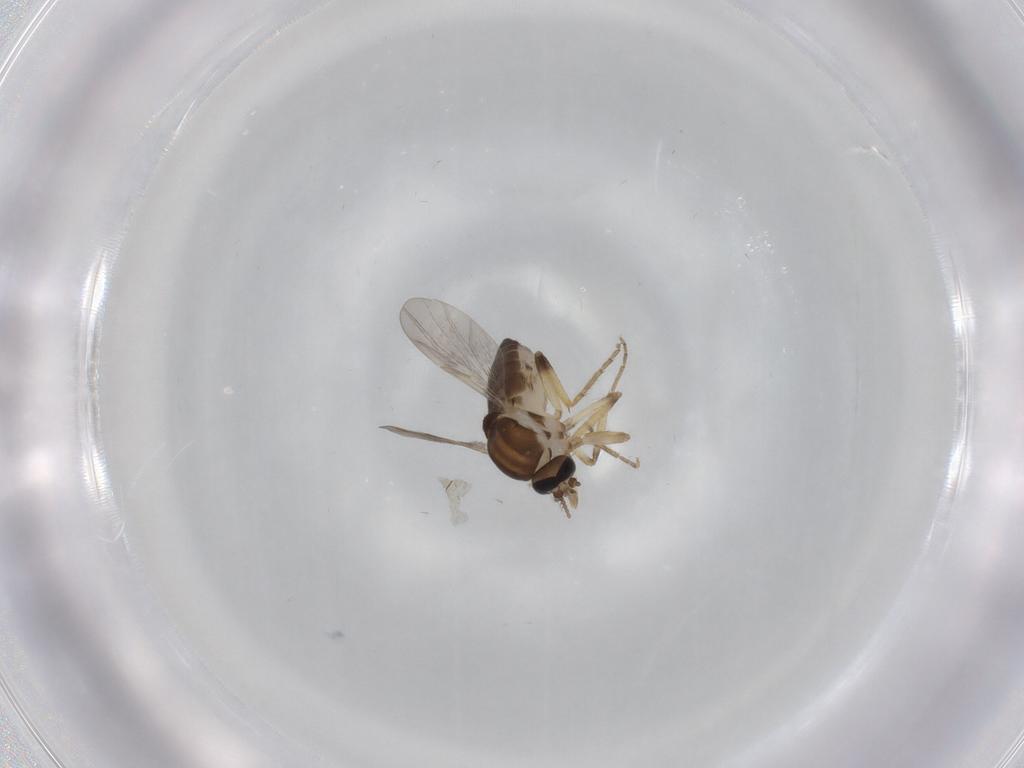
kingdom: Animalia
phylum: Arthropoda
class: Insecta
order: Diptera
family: Ceratopogonidae
